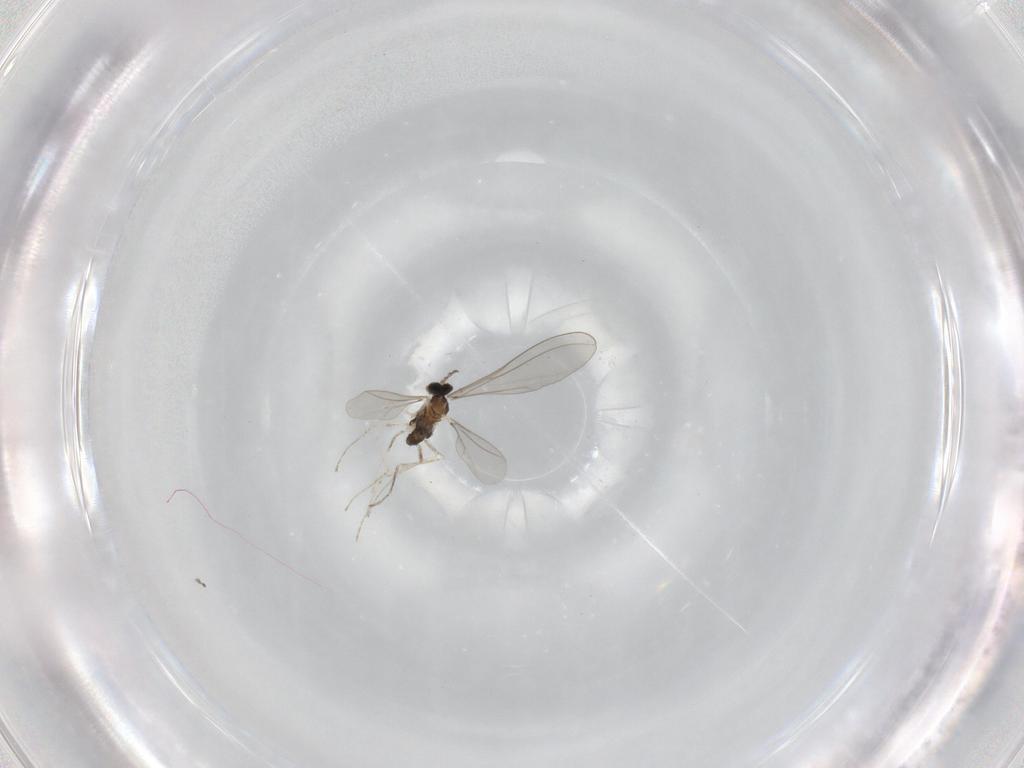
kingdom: Animalia
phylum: Arthropoda
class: Insecta
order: Diptera
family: Cecidomyiidae
